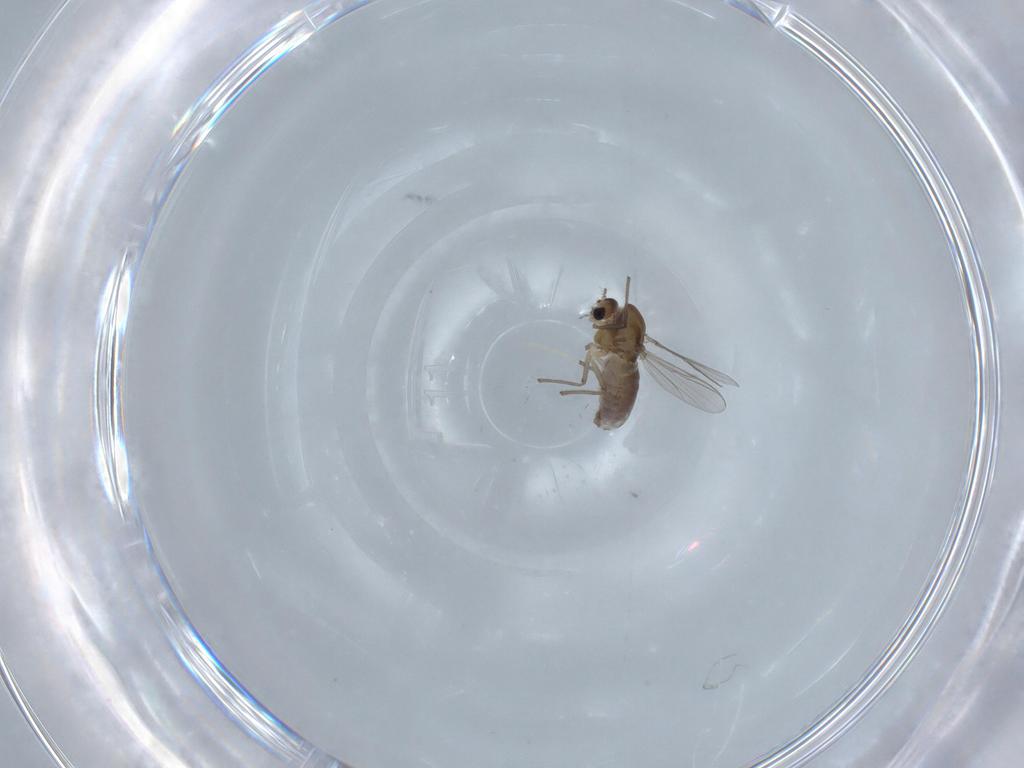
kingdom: Animalia
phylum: Arthropoda
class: Insecta
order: Diptera
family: Chironomidae
